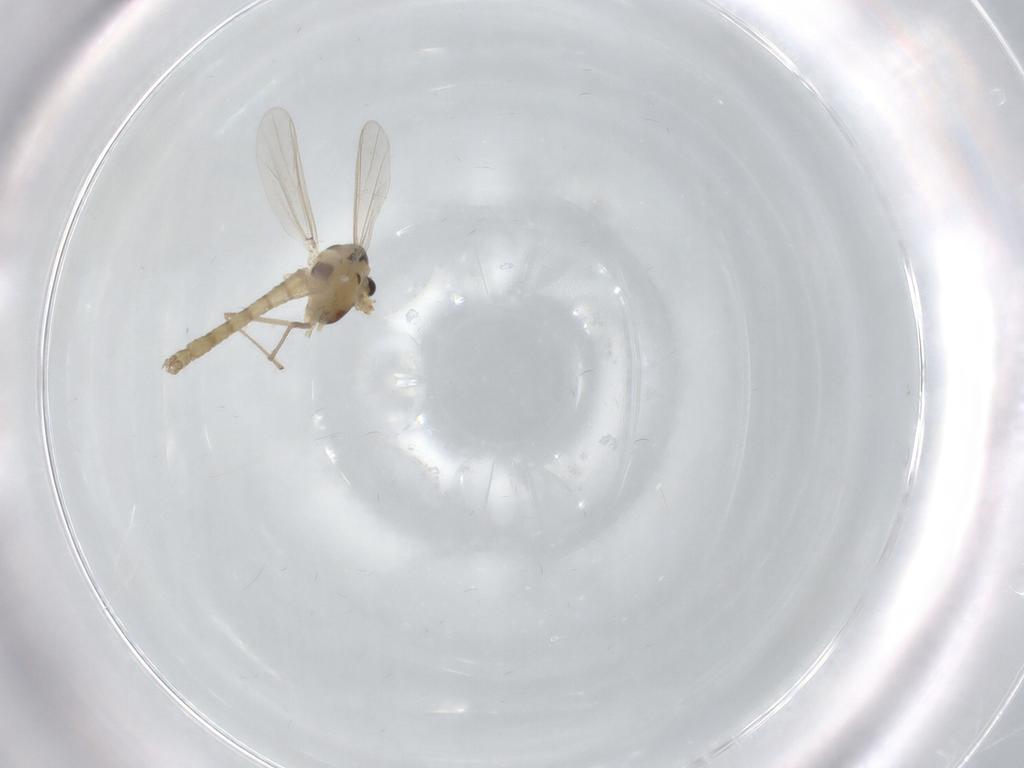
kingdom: Animalia
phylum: Arthropoda
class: Insecta
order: Diptera
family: Chironomidae
